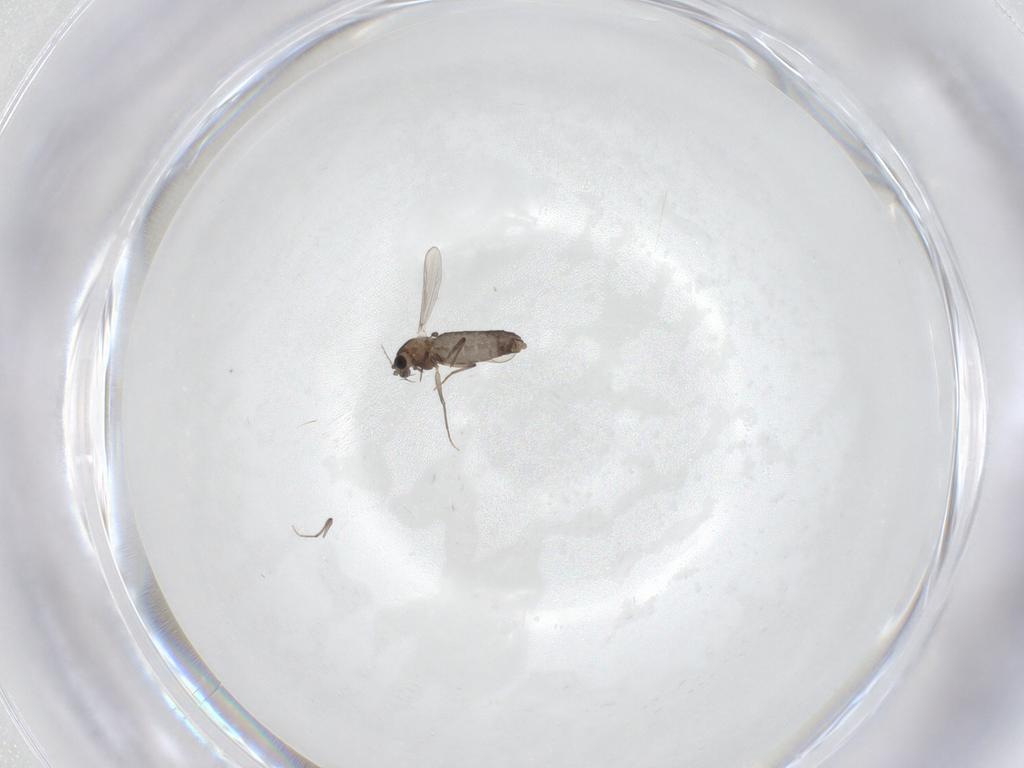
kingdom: Animalia
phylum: Arthropoda
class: Insecta
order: Diptera
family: Chironomidae
